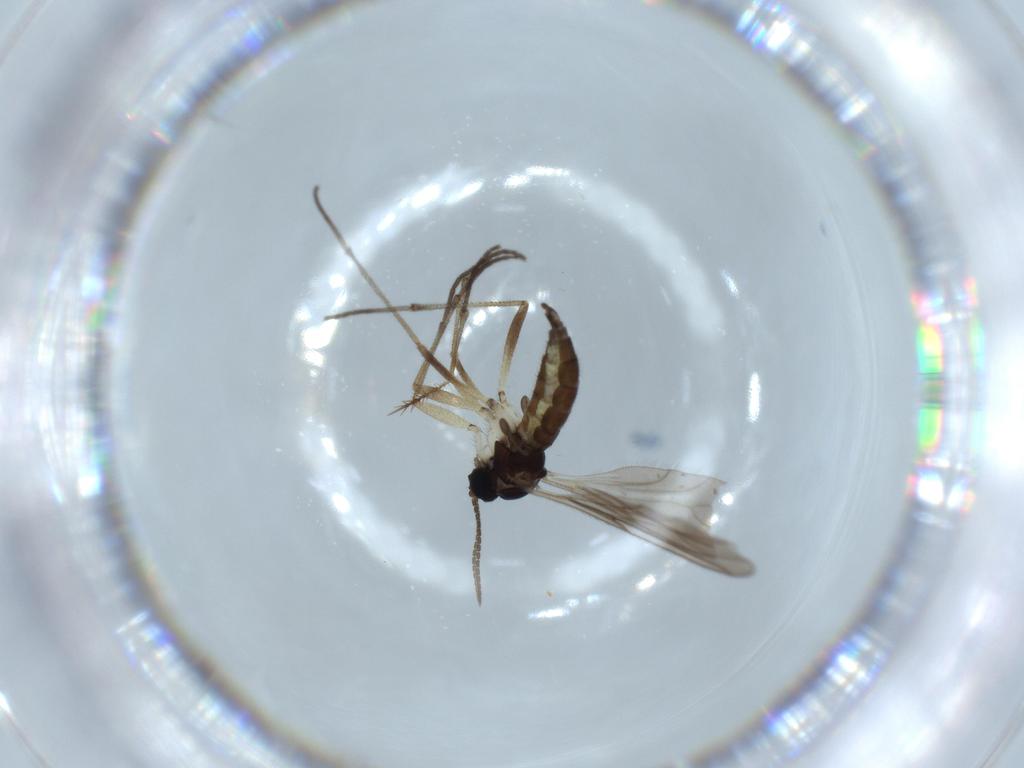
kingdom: Animalia
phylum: Arthropoda
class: Insecta
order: Diptera
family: Sciaridae
